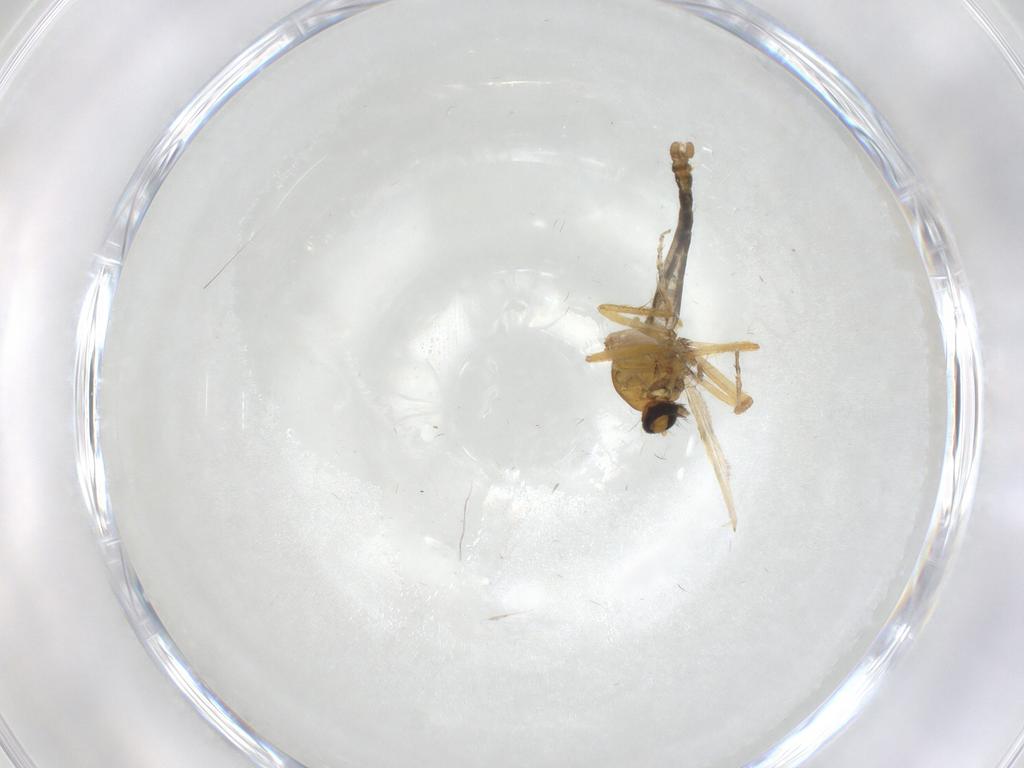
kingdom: Animalia
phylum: Arthropoda
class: Insecta
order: Diptera
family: Ceratopogonidae
